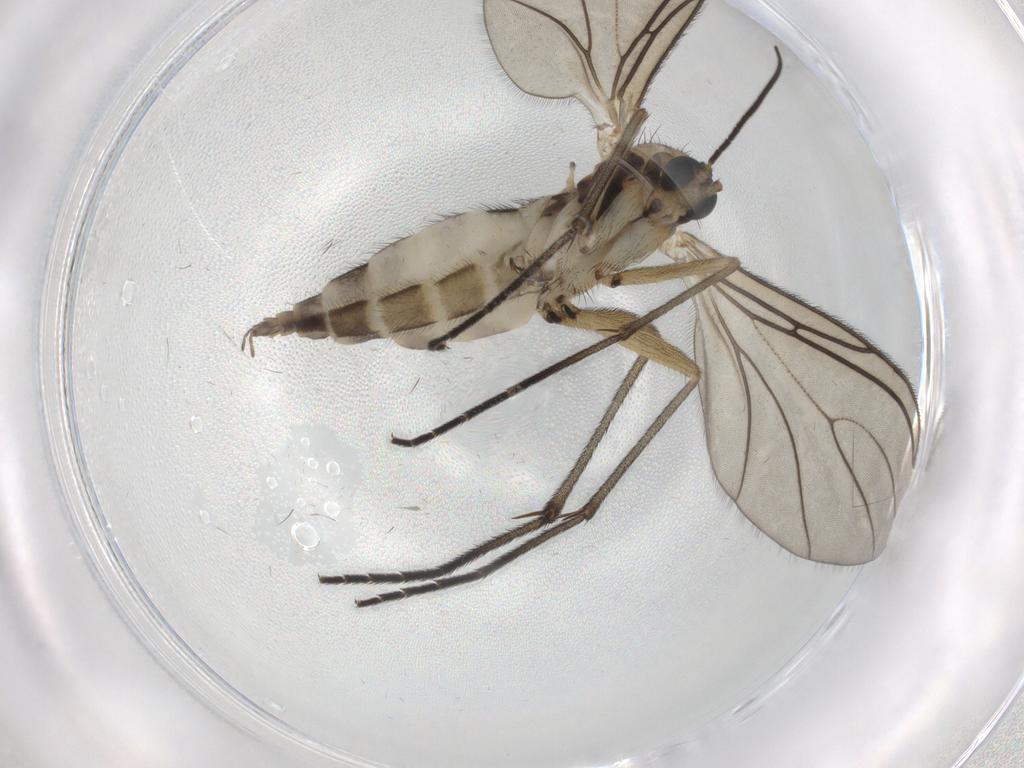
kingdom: Animalia
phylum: Arthropoda
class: Insecta
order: Diptera
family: Sciaridae
